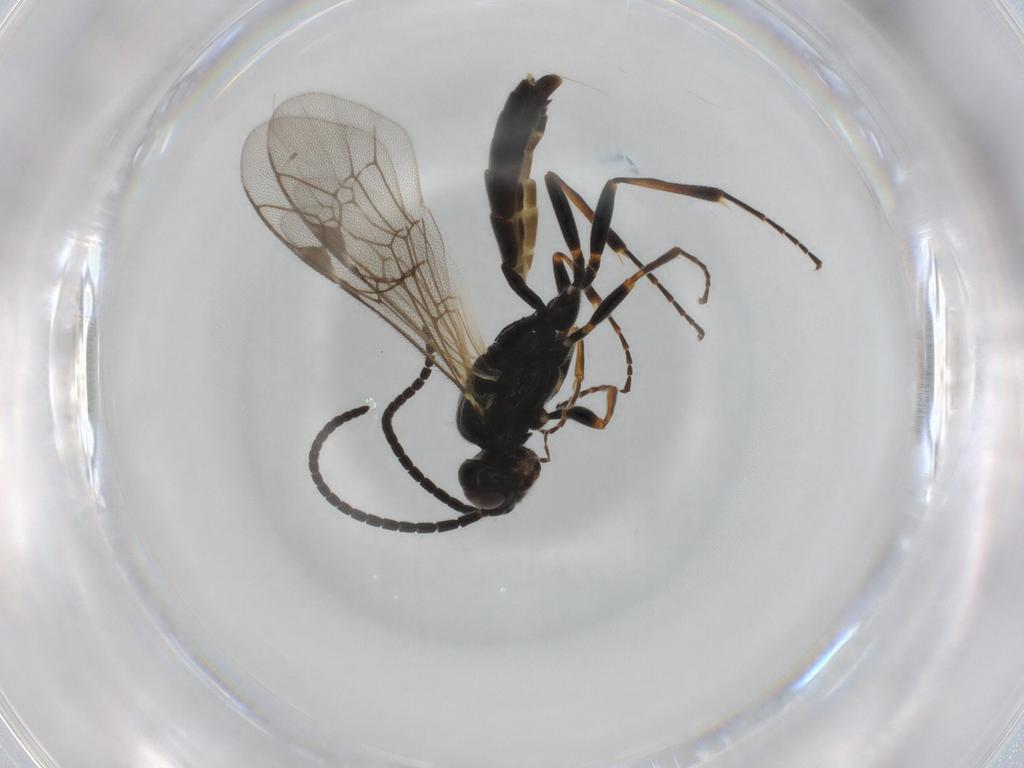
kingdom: Animalia
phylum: Arthropoda
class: Insecta
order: Hymenoptera
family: Ichneumonidae
